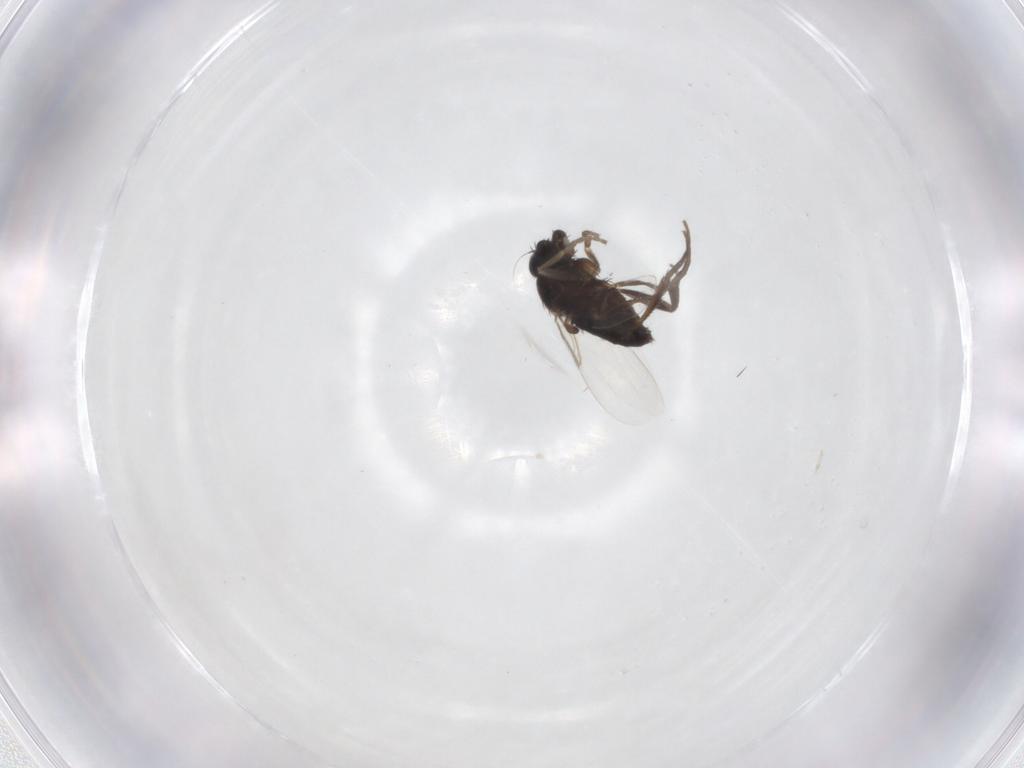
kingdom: Animalia
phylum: Arthropoda
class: Insecta
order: Diptera
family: Phoridae
